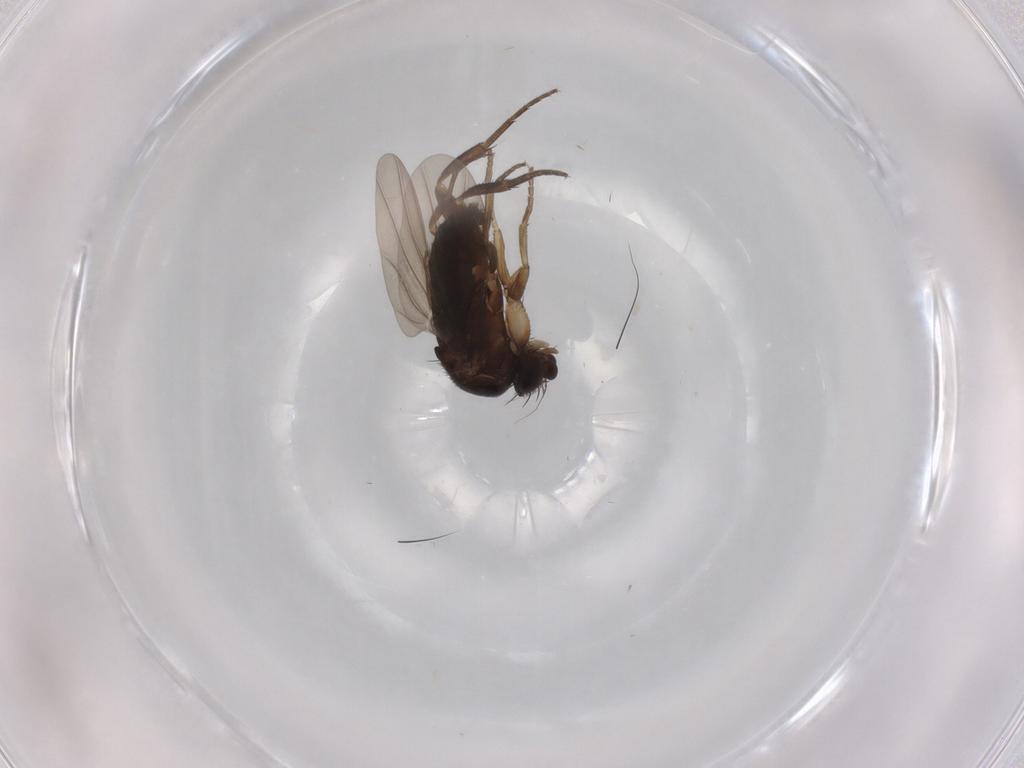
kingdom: Animalia
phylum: Arthropoda
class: Insecta
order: Diptera
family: Phoridae
